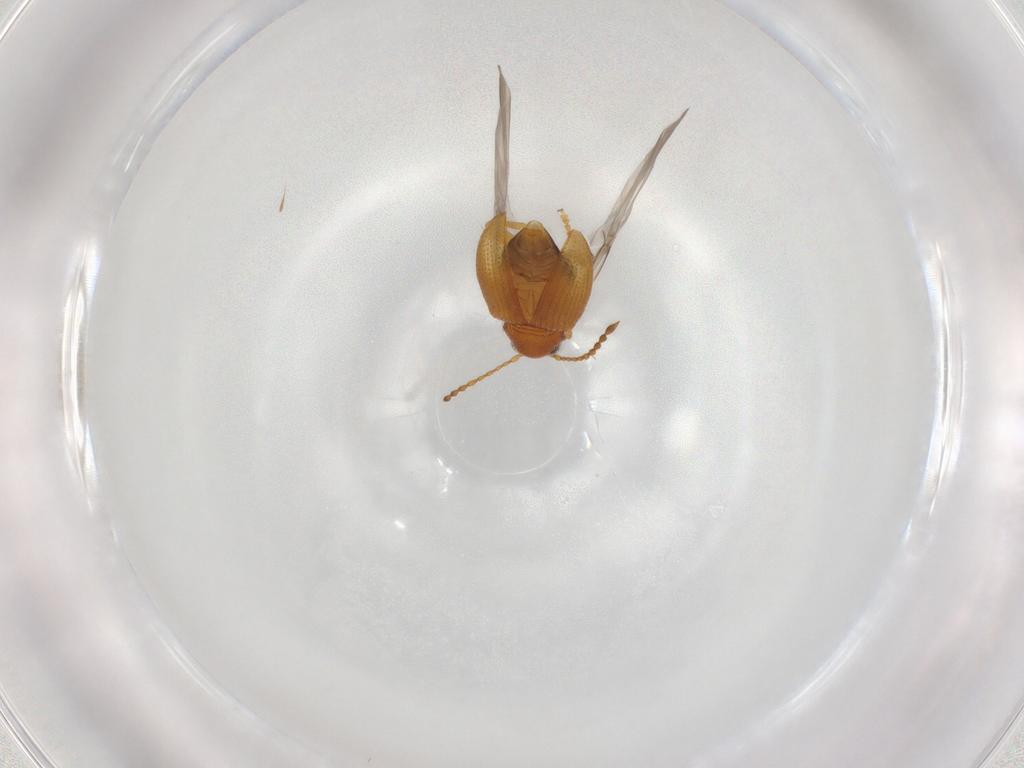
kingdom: Animalia
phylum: Arthropoda
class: Insecta
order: Coleoptera
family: Chrysomelidae
